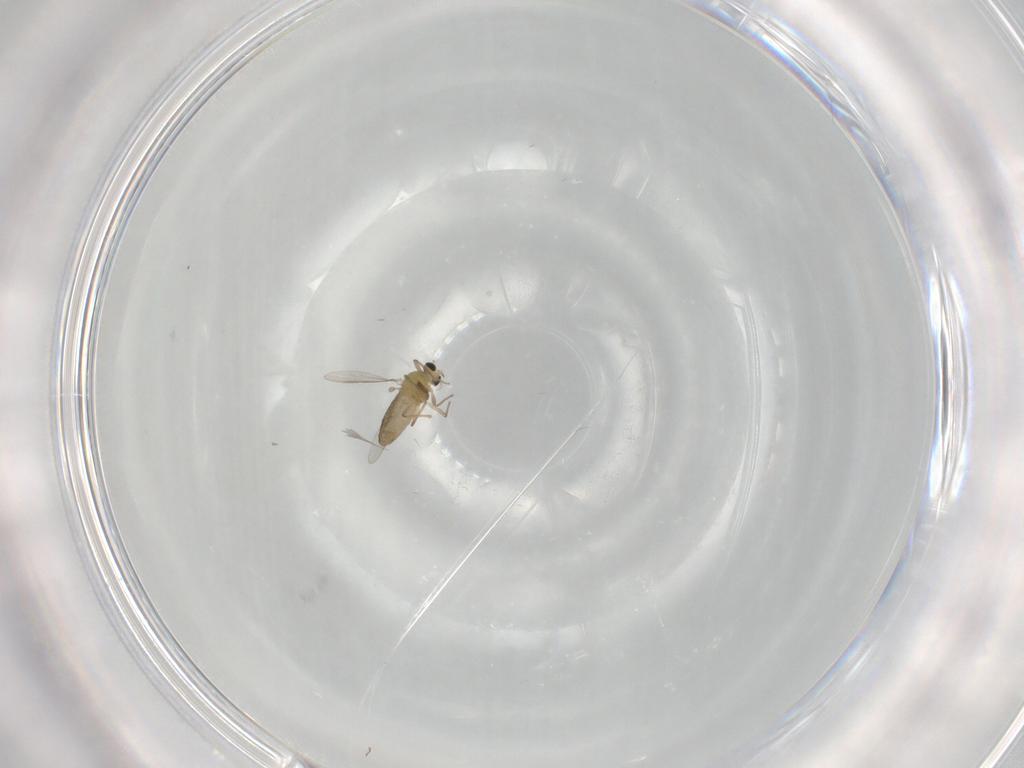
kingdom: Animalia
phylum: Arthropoda
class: Insecta
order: Diptera
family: Chironomidae
